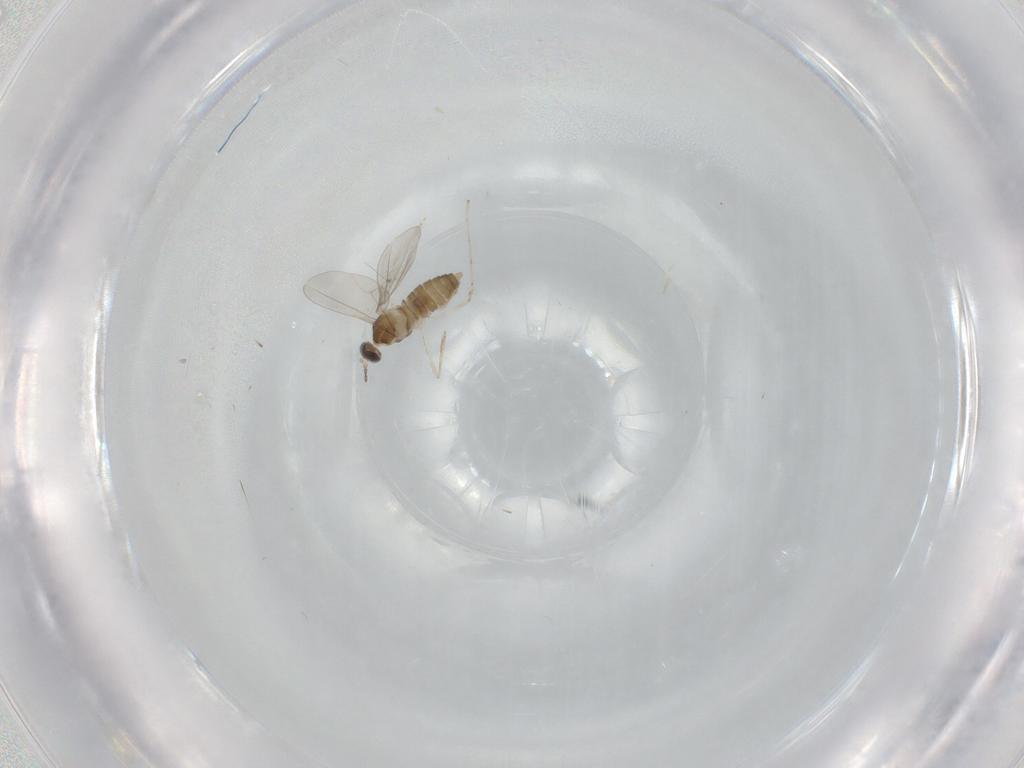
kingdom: Animalia
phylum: Arthropoda
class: Insecta
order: Diptera
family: Cecidomyiidae
